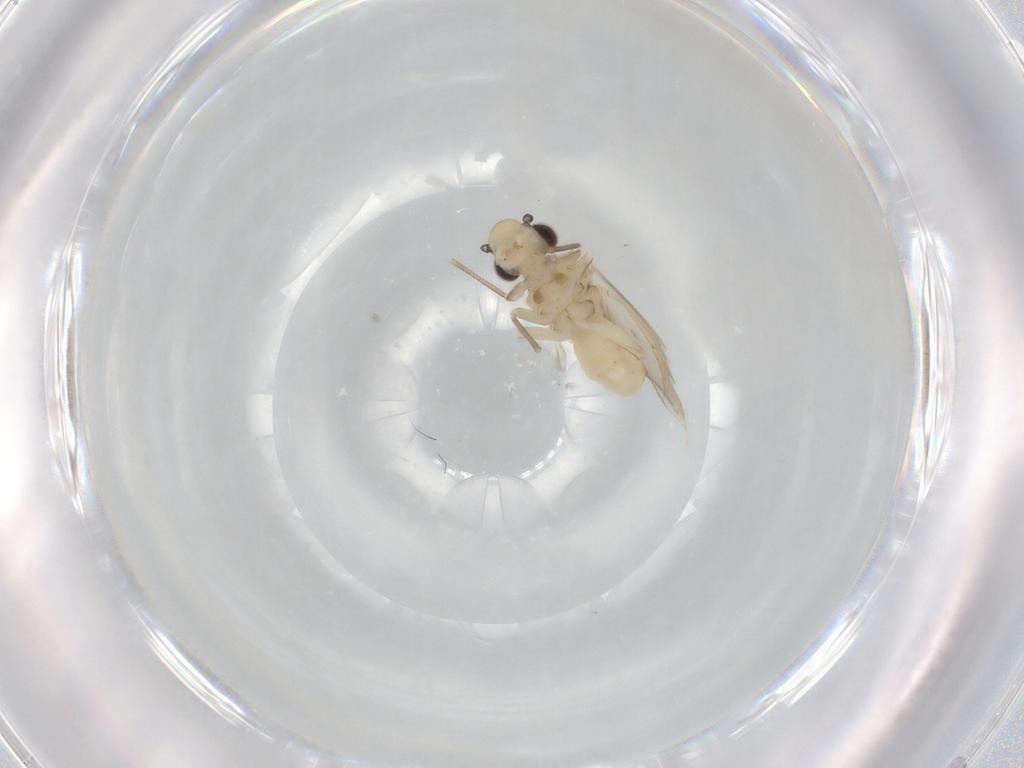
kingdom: Animalia
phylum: Arthropoda
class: Insecta
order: Psocodea
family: Caeciliusidae
